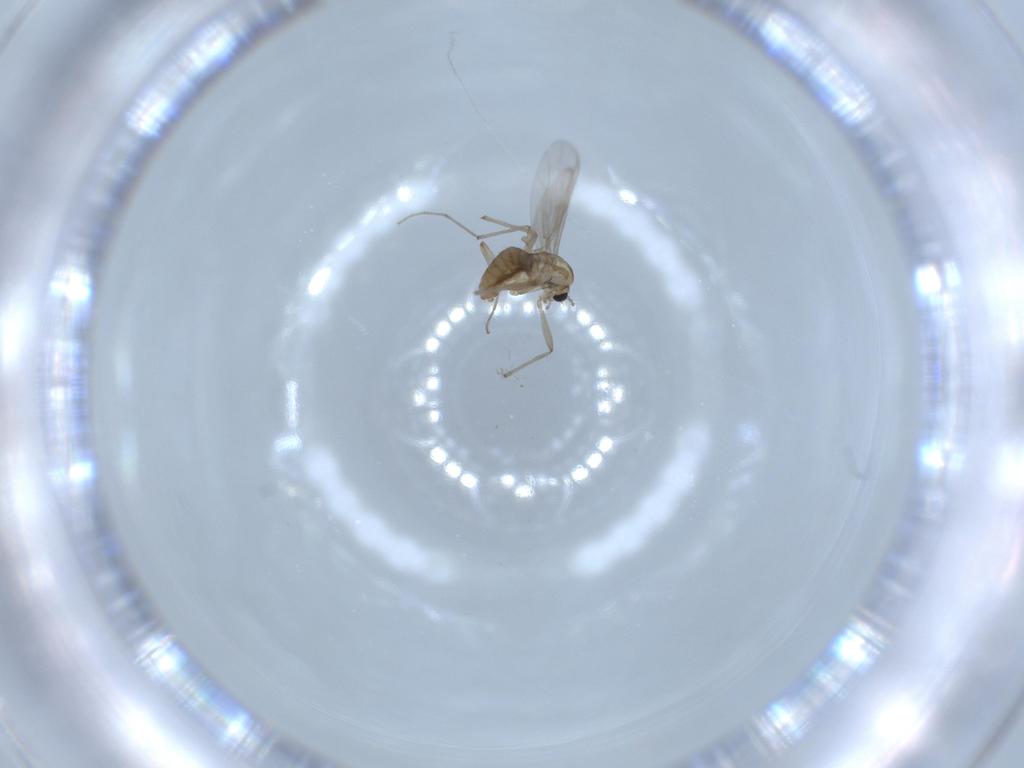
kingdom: Animalia
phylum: Arthropoda
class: Insecta
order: Diptera
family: Chironomidae
